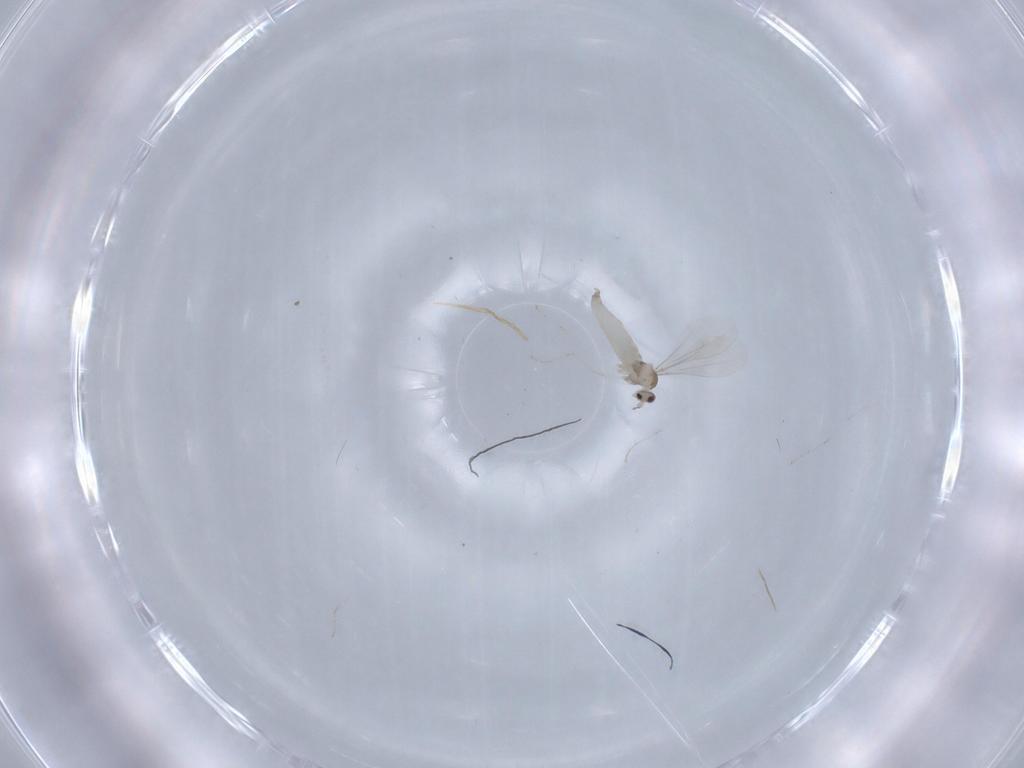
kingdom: Animalia
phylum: Arthropoda
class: Insecta
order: Diptera
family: Cecidomyiidae
